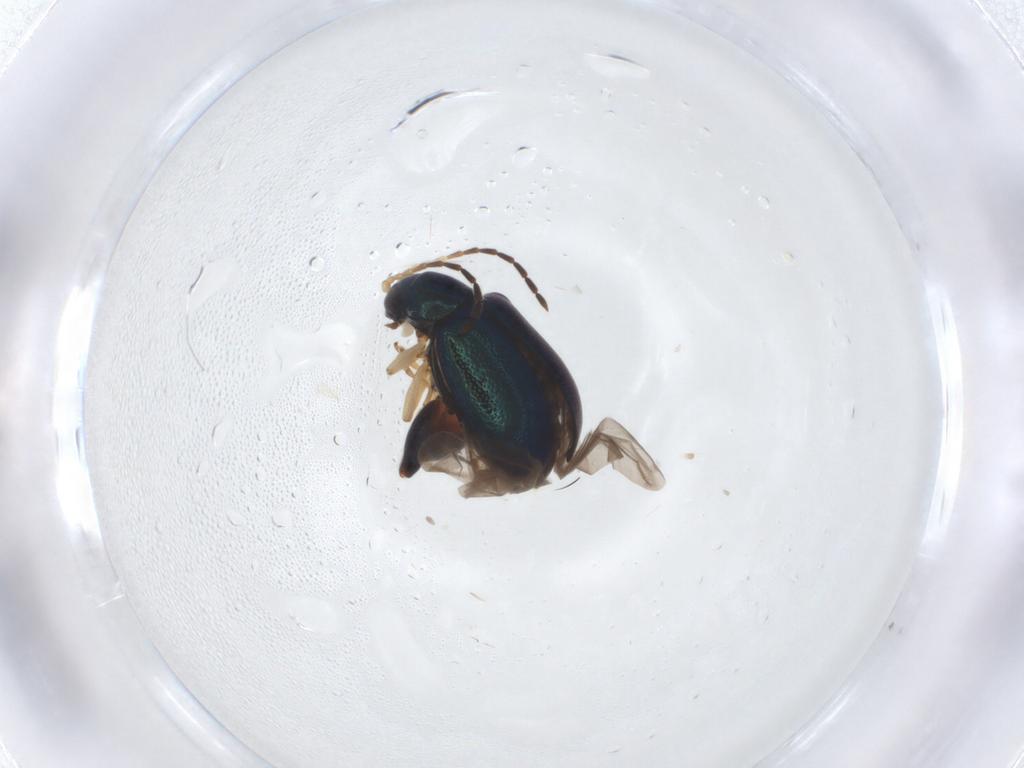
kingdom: Animalia
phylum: Arthropoda
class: Insecta
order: Coleoptera
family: Chrysomelidae
